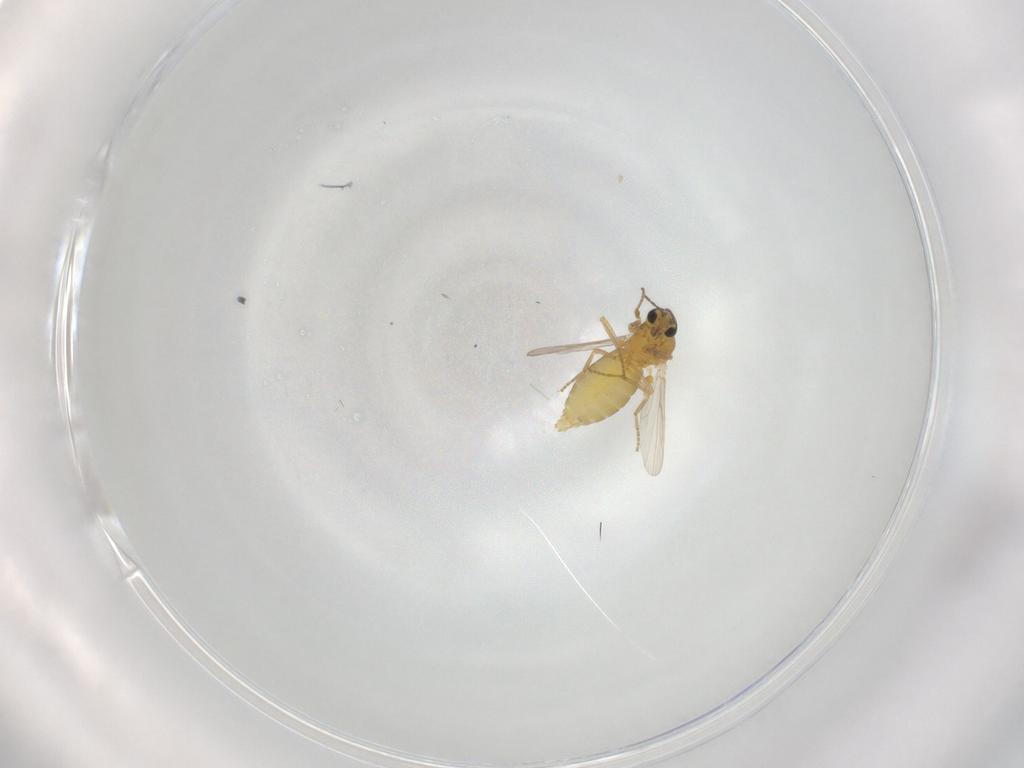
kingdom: Animalia
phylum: Arthropoda
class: Insecta
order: Diptera
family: Ceratopogonidae
